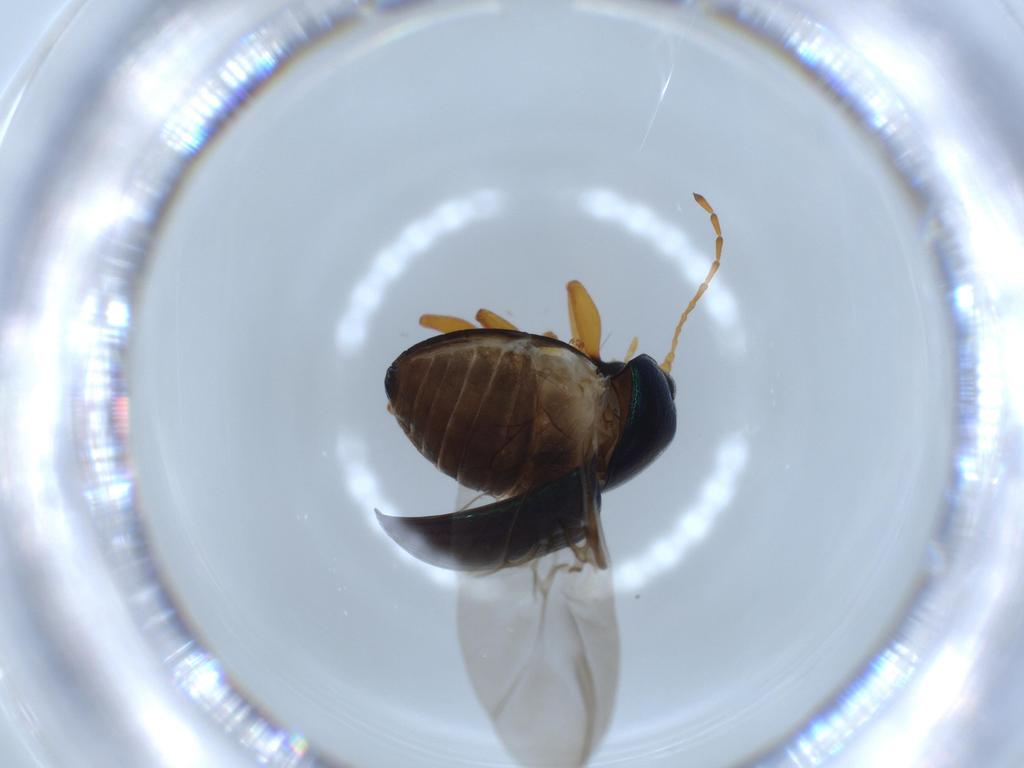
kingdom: Animalia
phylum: Arthropoda
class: Insecta
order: Coleoptera
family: Chrysomelidae
